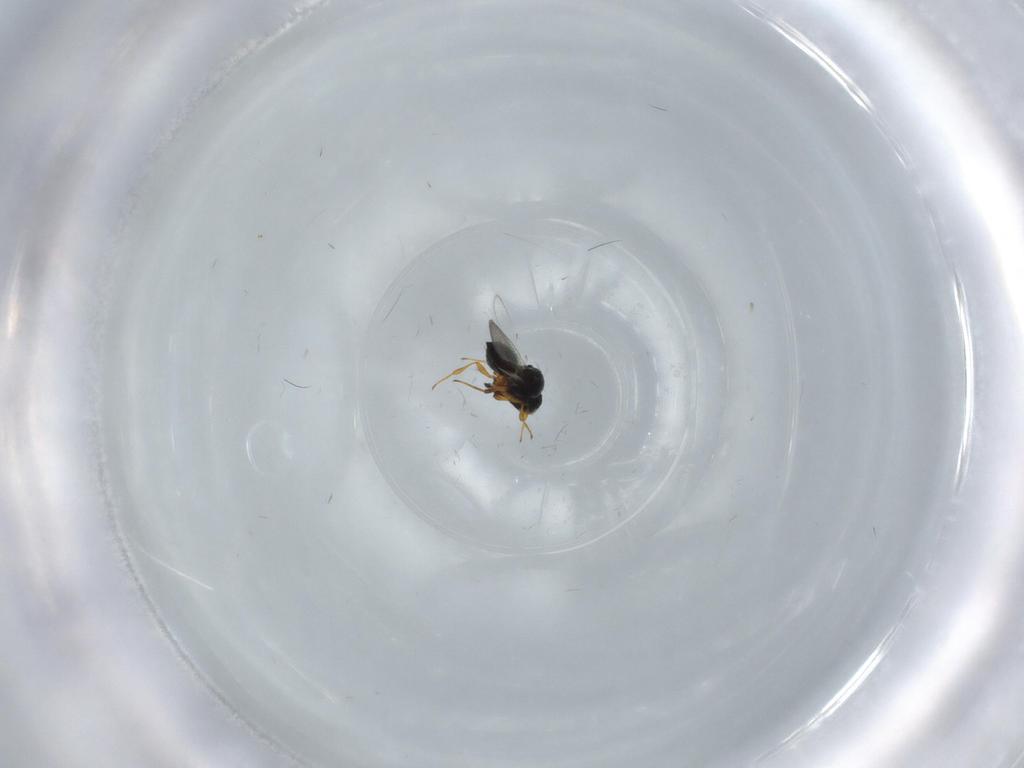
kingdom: Animalia
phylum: Arthropoda
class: Insecta
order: Hymenoptera
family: Platygastridae
